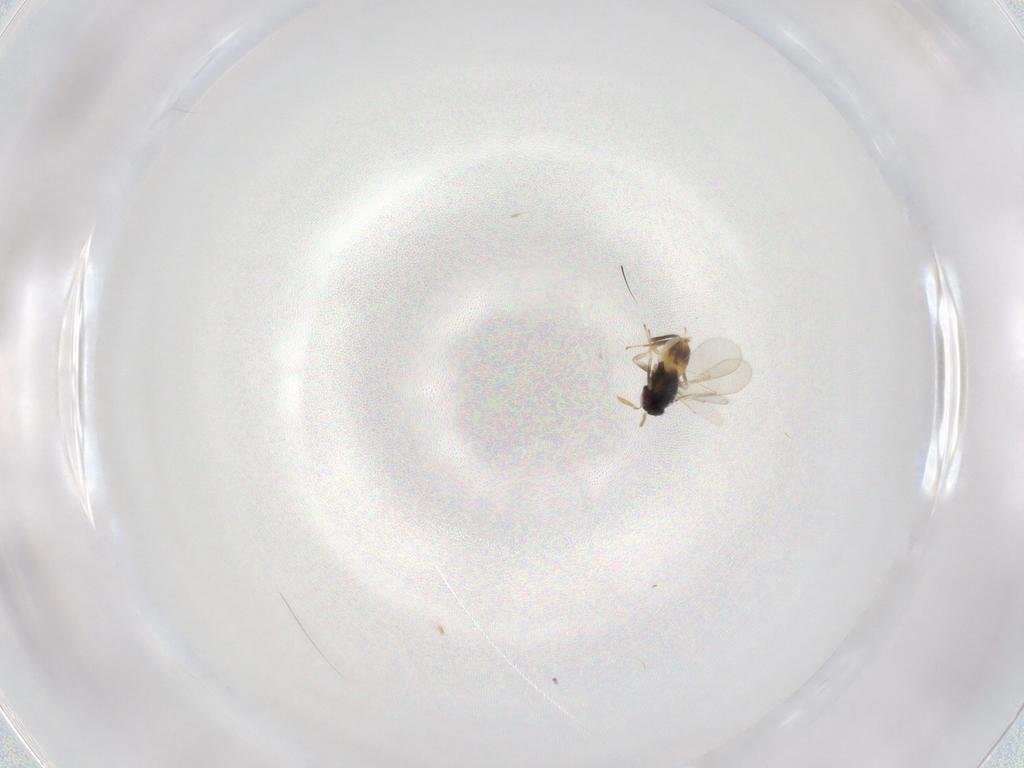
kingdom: Animalia
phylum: Arthropoda
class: Insecta
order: Hymenoptera
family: Aphelinidae
